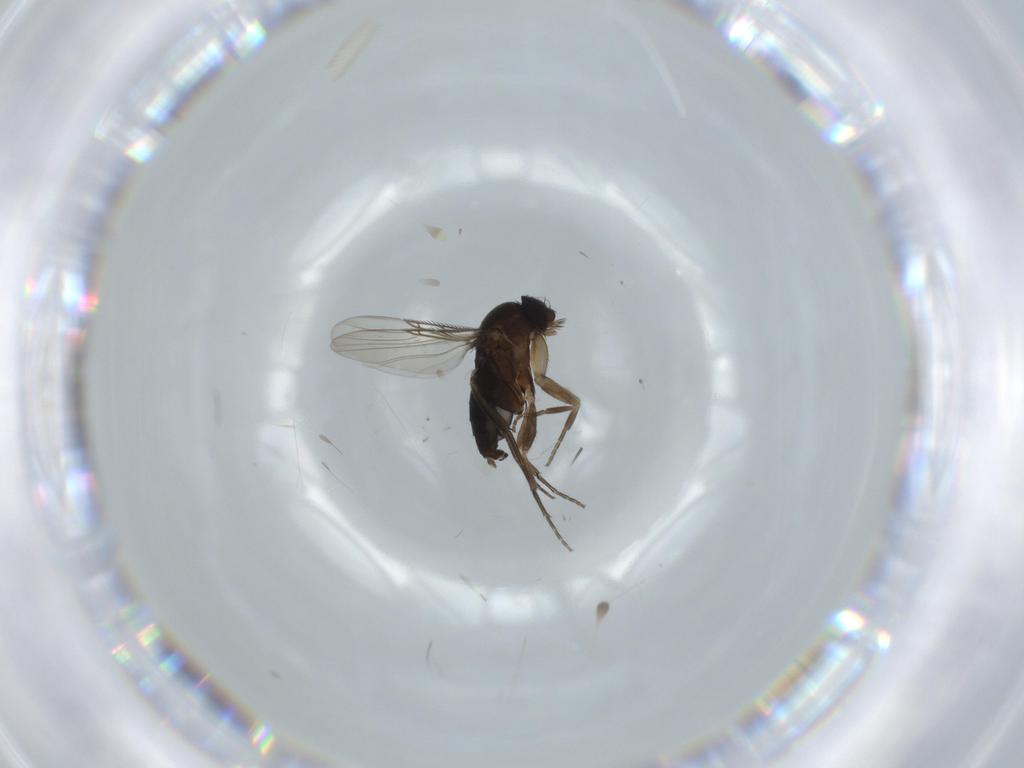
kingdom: Animalia
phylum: Arthropoda
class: Insecta
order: Diptera
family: Phoridae
